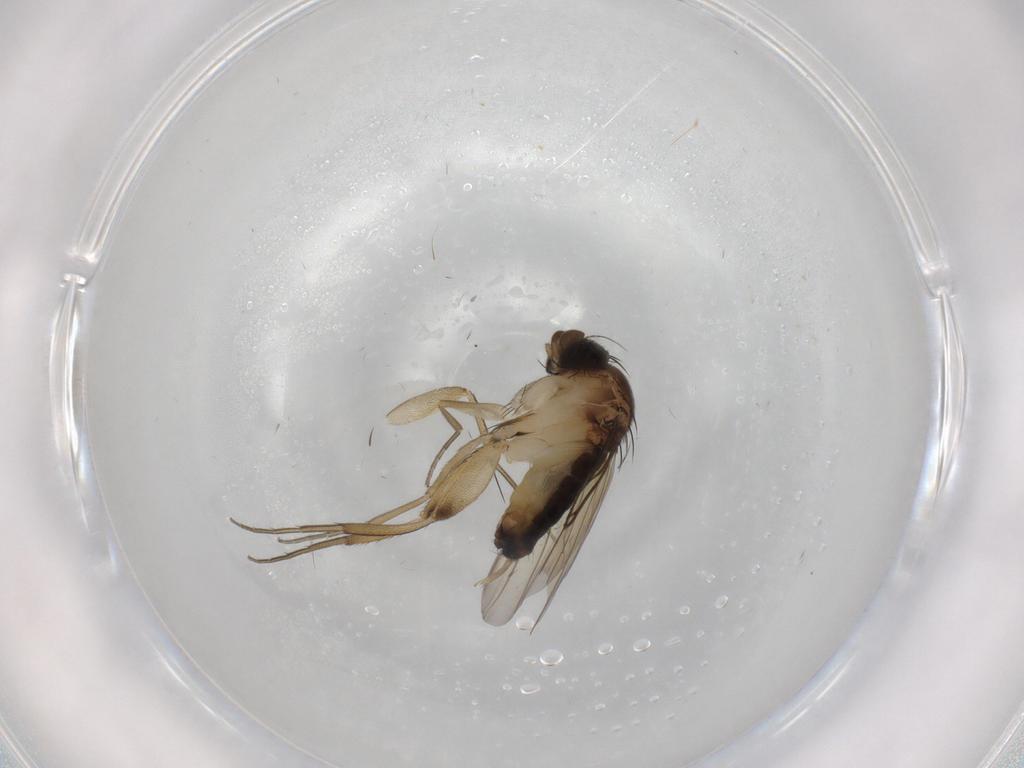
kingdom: Animalia
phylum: Arthropoda
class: Insecta
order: Diptera
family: Phoridae
